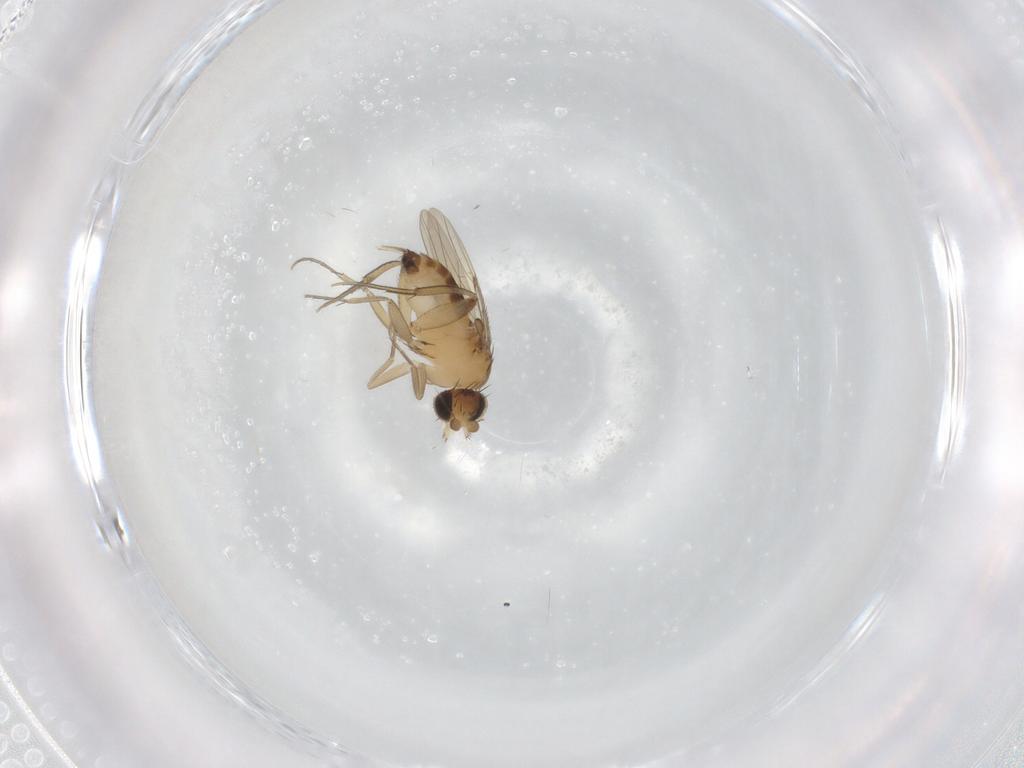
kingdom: Animalia
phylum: Arthropoda
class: Insecta
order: Diptera
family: Phoridae
